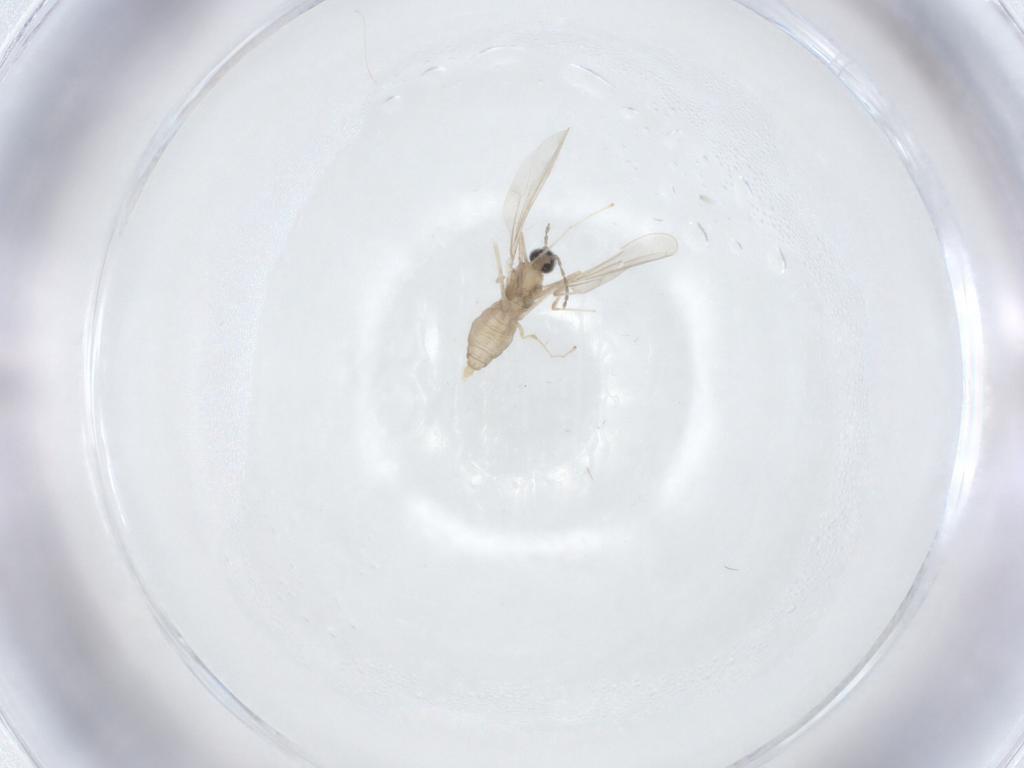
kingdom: Animalia
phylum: Arthropoda
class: Insecta
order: Diptera
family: Cecidomyiidae
